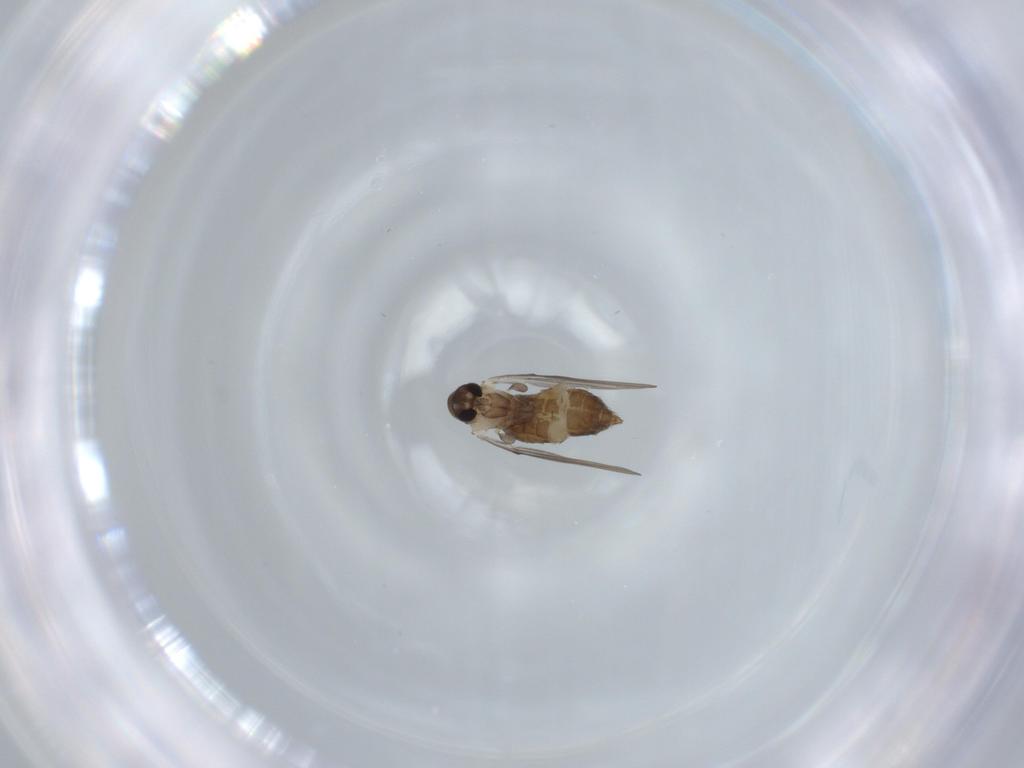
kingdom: Animalia
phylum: Arthropoda
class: Insecta
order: Diptera
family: Psychodidae
